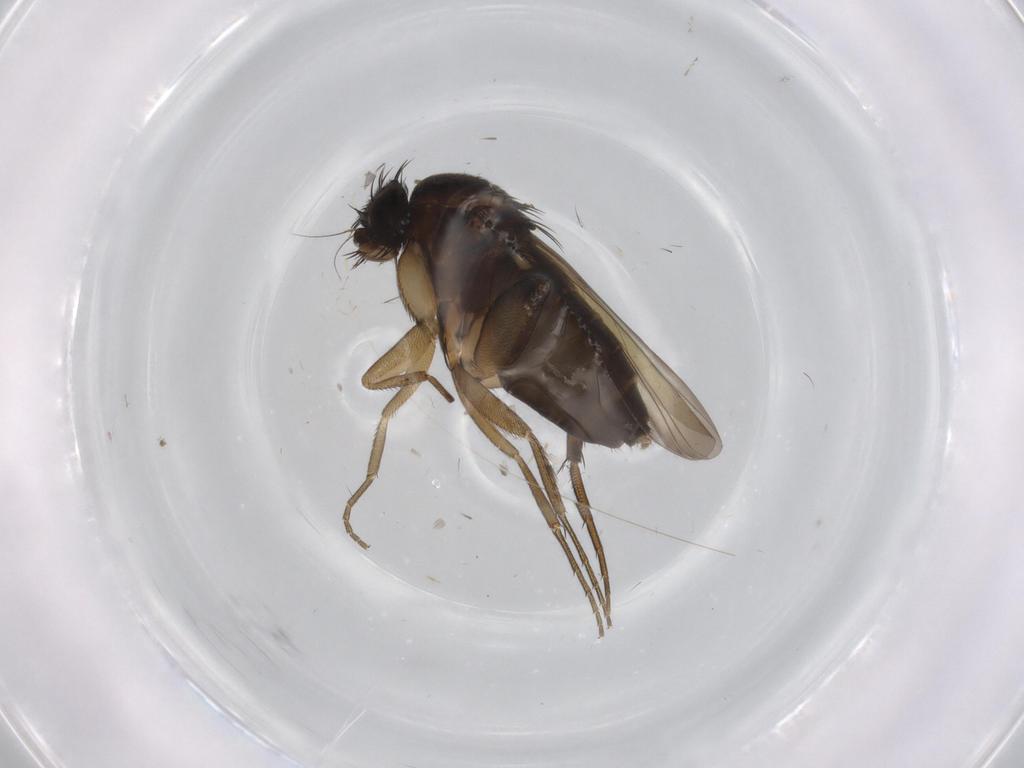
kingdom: Animalia
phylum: Arthropoda
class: Insecta
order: Diptera
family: Phoridae
